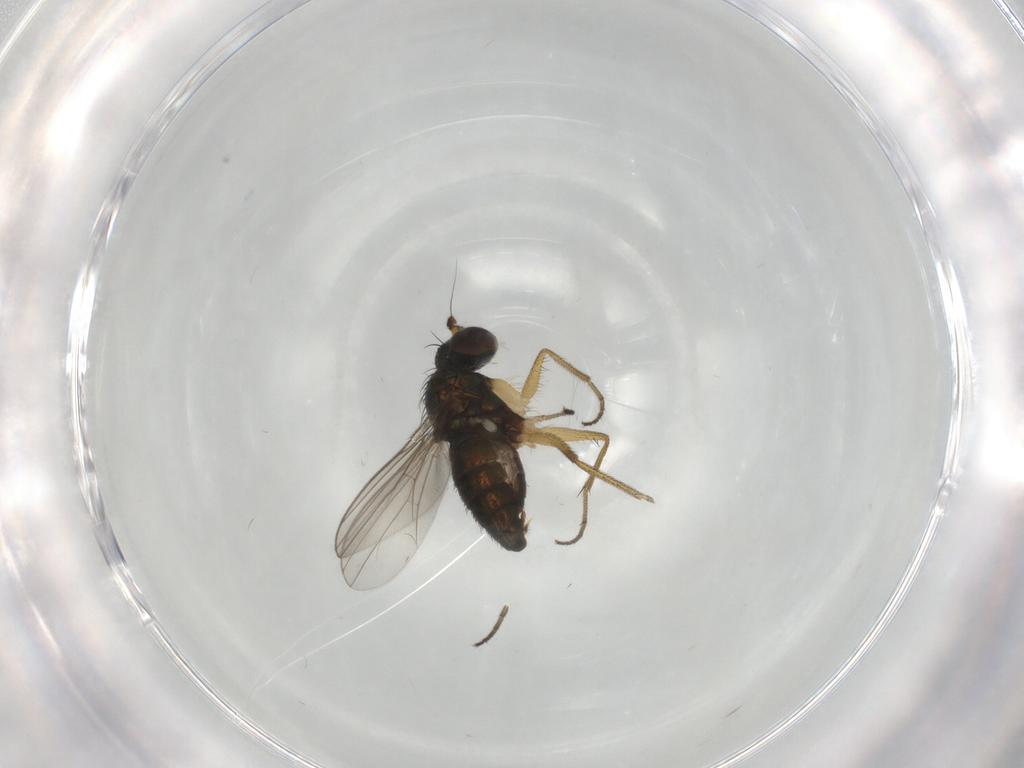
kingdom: Animalia
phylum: Arthropoda
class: Insecta
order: Diptera
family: Dolichopodidae
